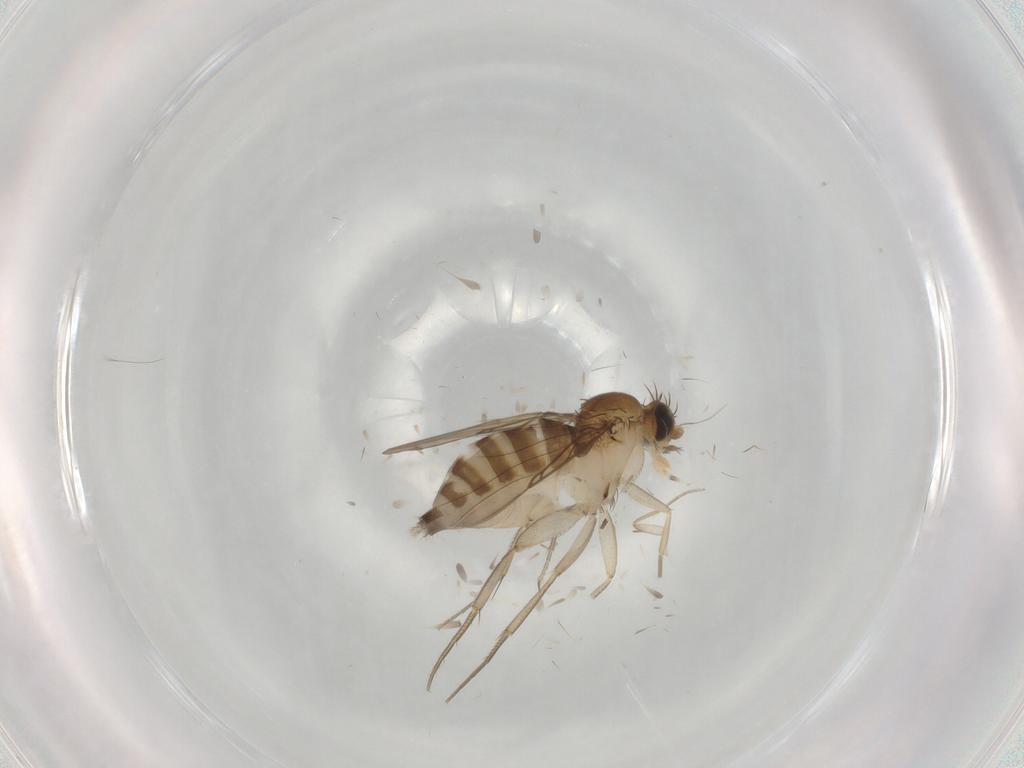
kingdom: Animalia
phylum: Arthropoda
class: Insecta
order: Diptera
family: Phoridae
